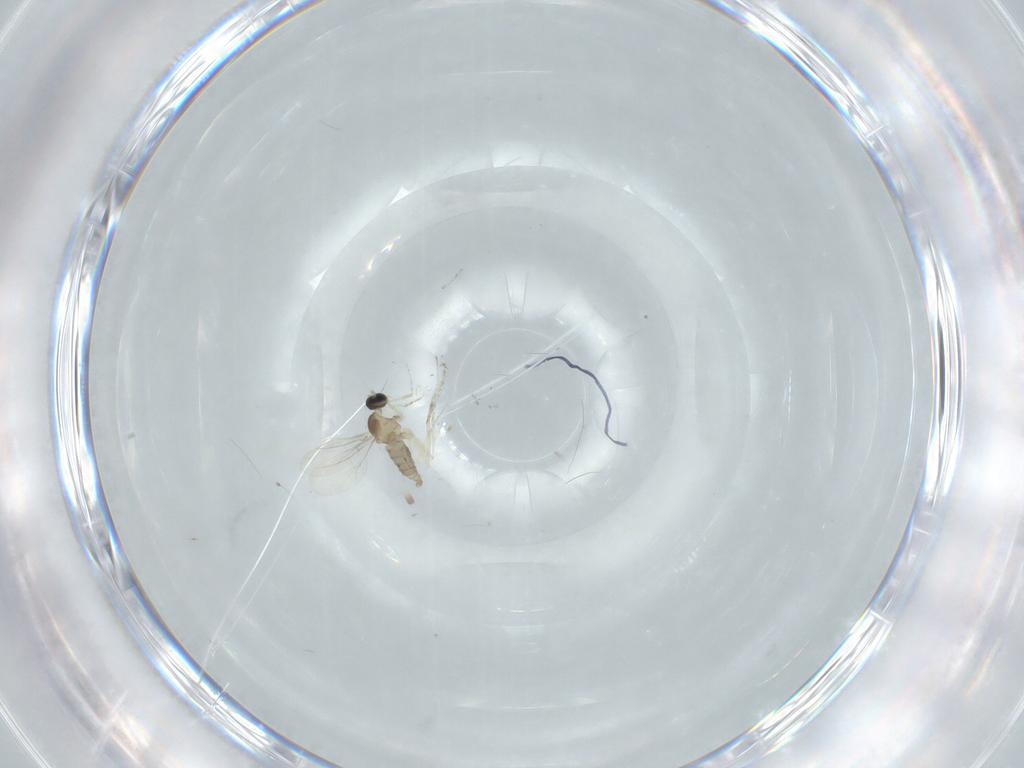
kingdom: Animalia
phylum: Arthropoda
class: Insecta
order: Diptera
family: Cecidomyiidae
